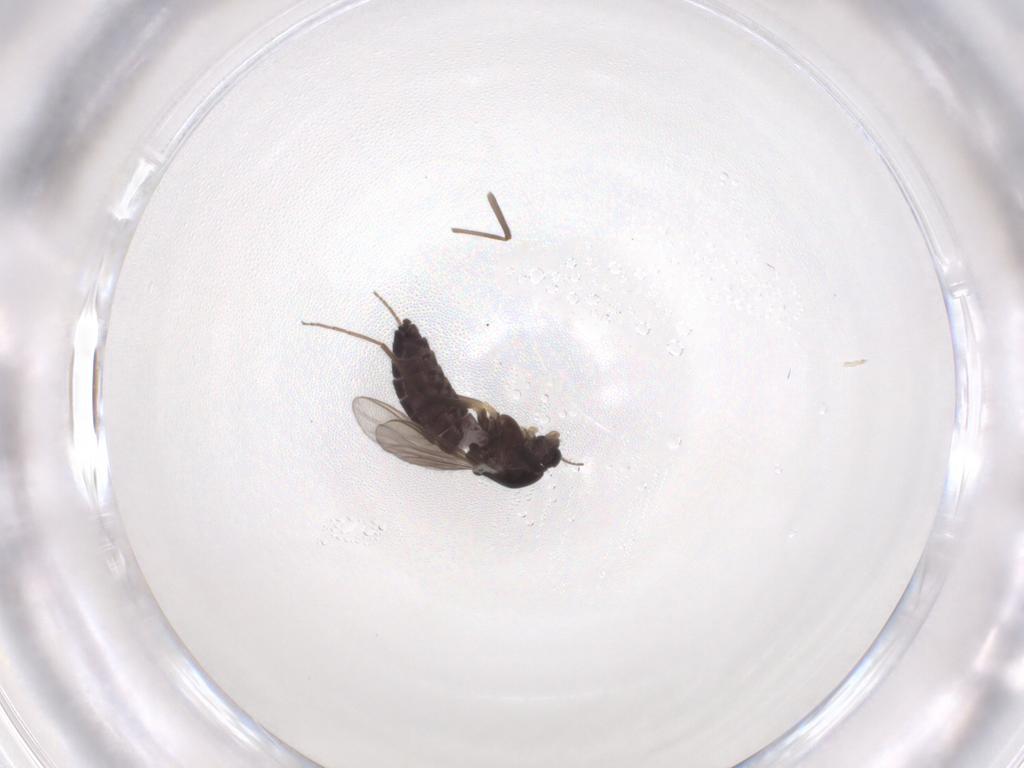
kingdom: Animalia
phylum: Arthropoda
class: Insecta
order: Diptera
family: Chironomidae
